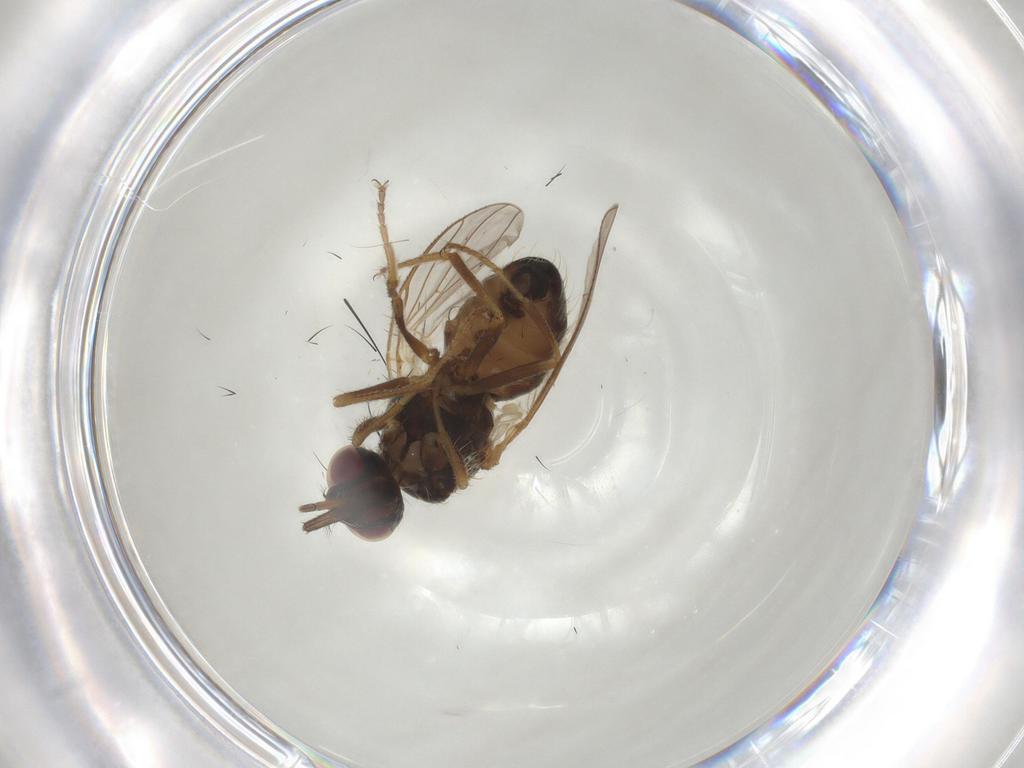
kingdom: Animalia
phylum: Arthropoda
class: Insecta
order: Diptera
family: Muscidae
